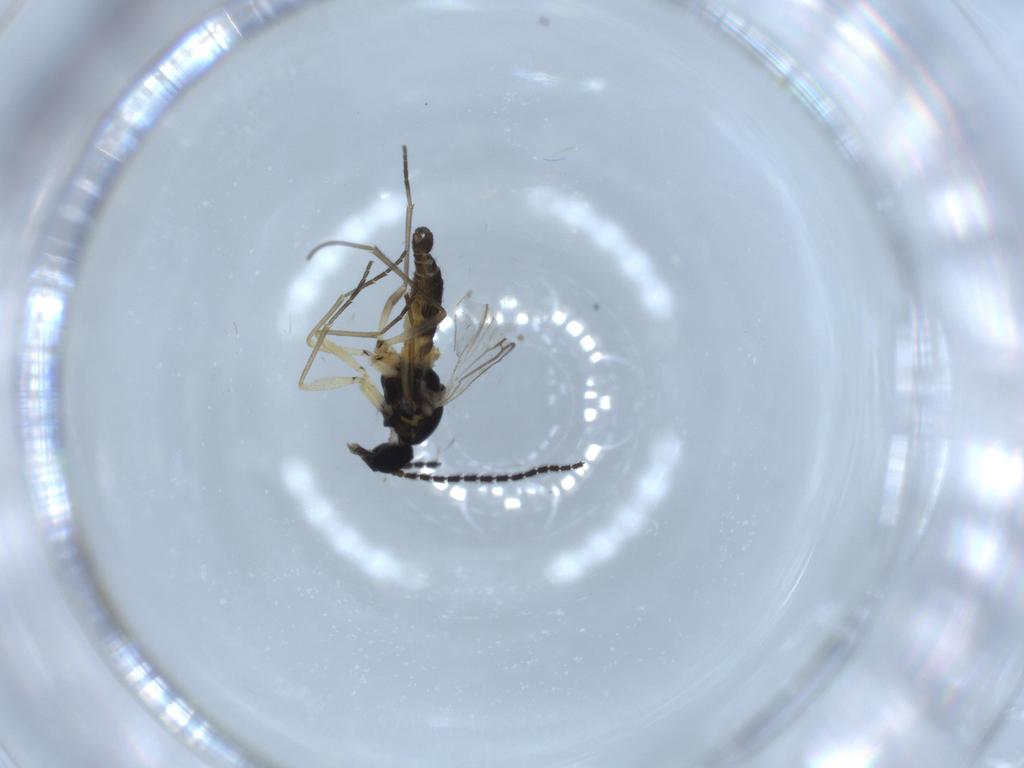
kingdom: Animalia
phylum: Arthropoda
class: Insecta
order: Diptera
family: Sciaridae
